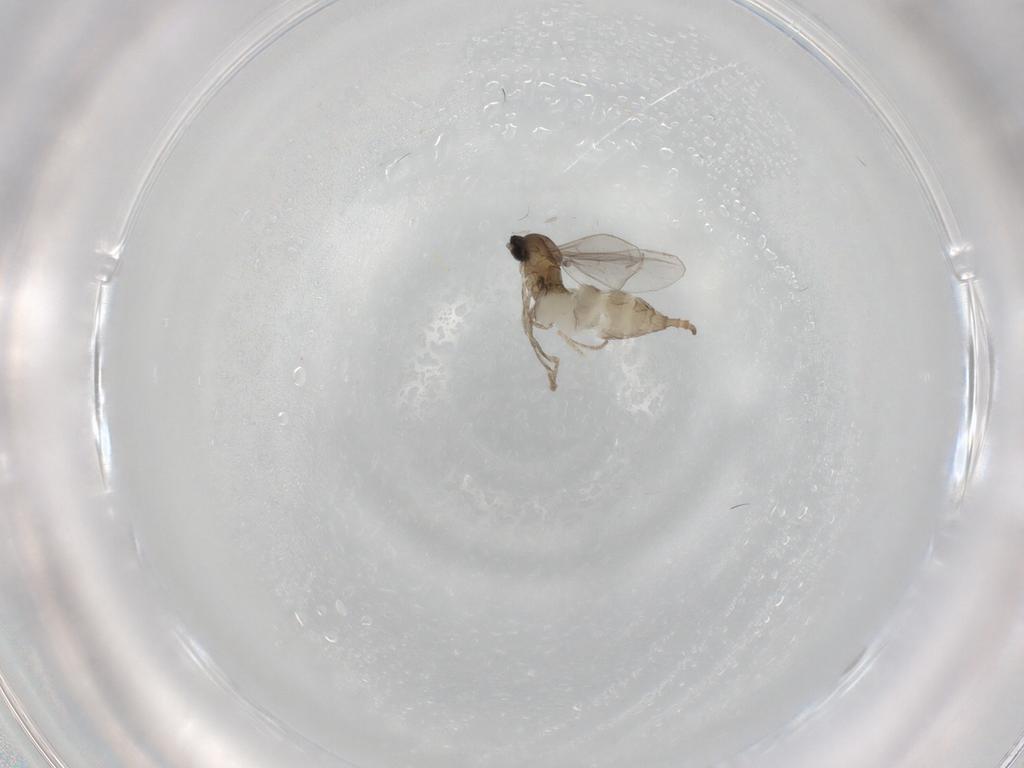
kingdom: Animalia
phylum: Arthropoda
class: Insecta
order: Diptera
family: Cecidomyiidae
